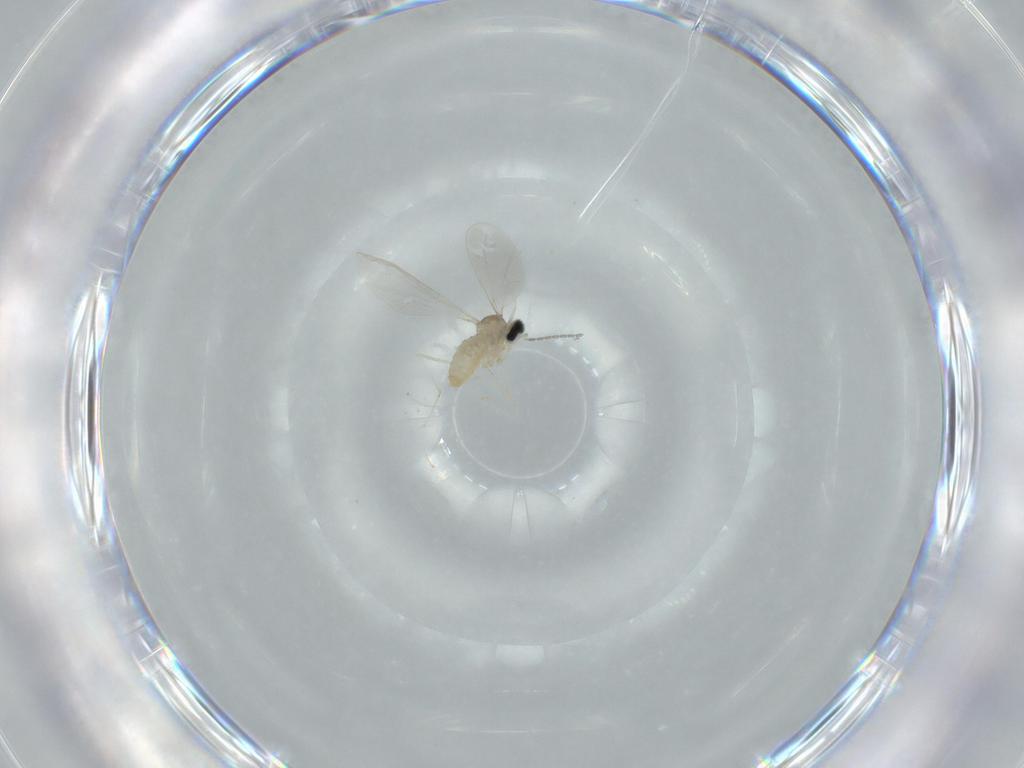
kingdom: Animalia
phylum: Arthropoda
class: Insecta
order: Diptera
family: Cecidomyiidae
